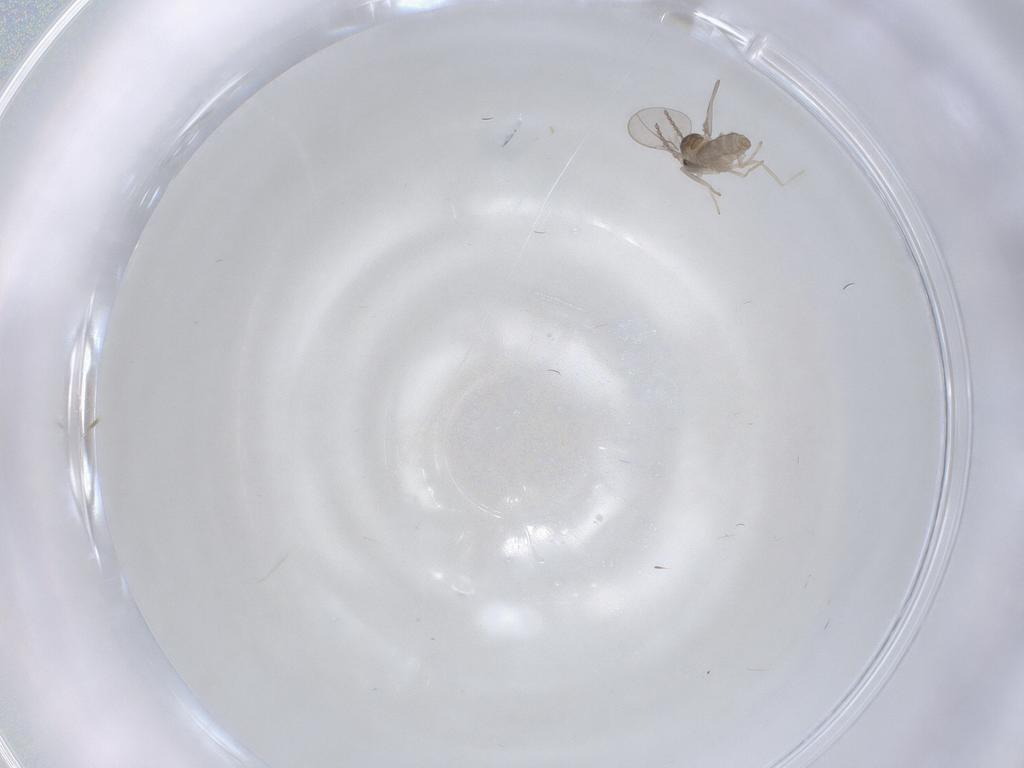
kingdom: Animalia
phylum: Arthropoda
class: Insecta
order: Diptera
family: Cecidomyiidae
